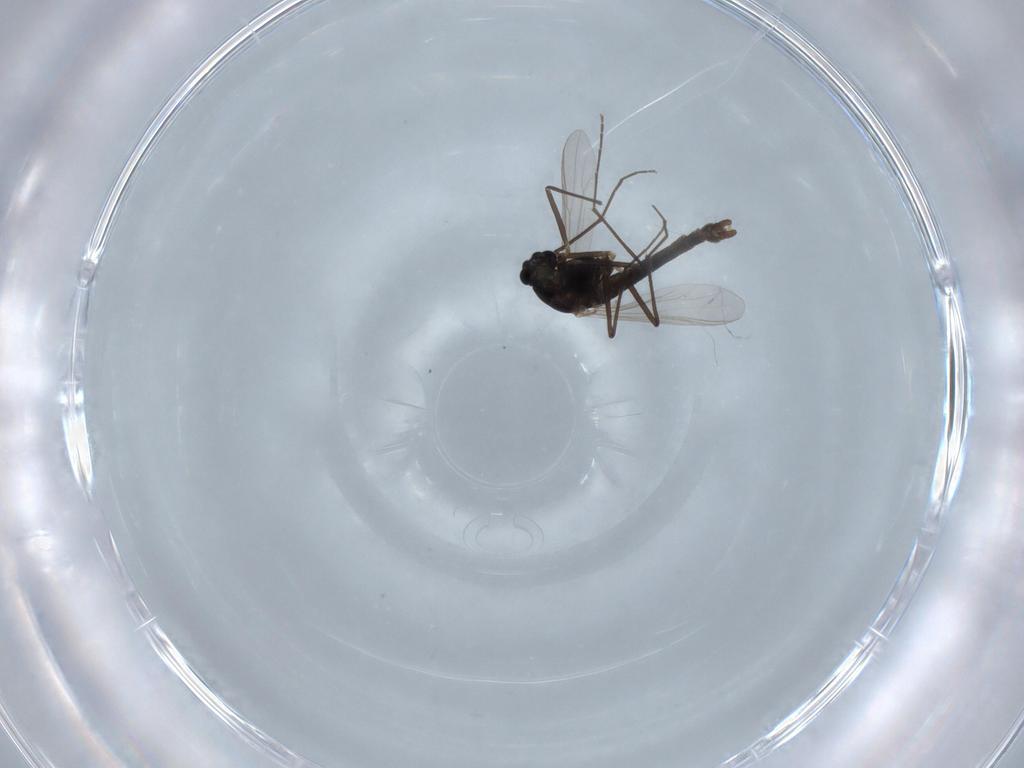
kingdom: Animalia
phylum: Arthropoda
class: Insecta
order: Diptera
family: Chironomidae
